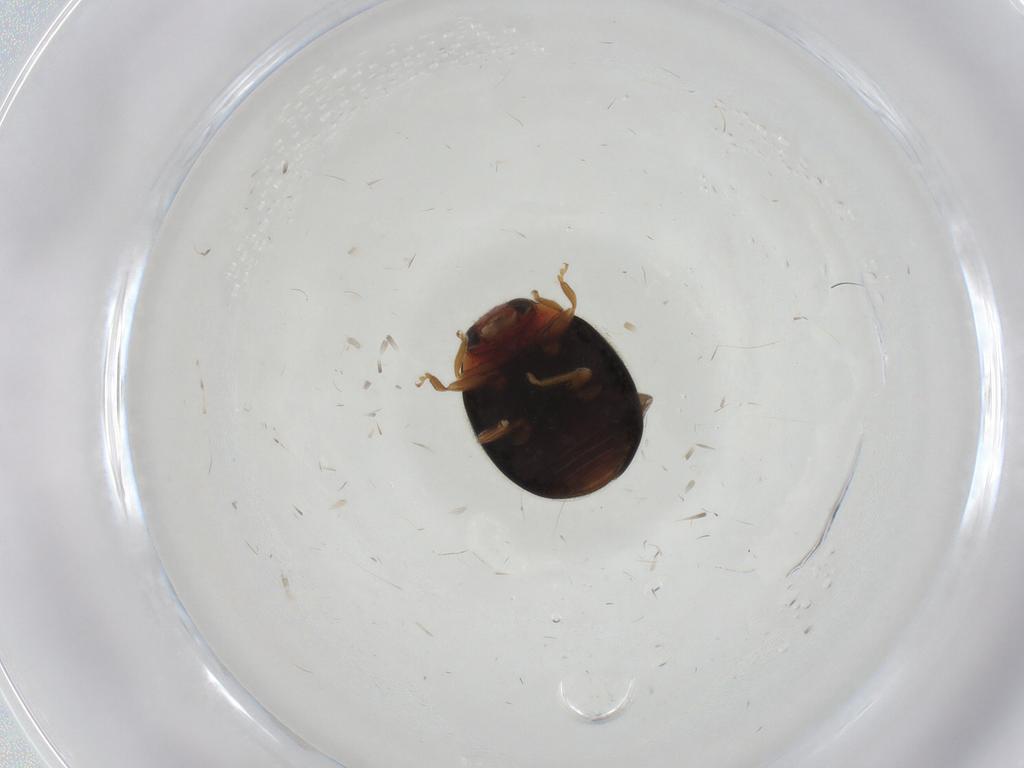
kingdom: Animalia
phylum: Arthropoda
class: Insecta
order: Coleoptera
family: Coccinellidae
